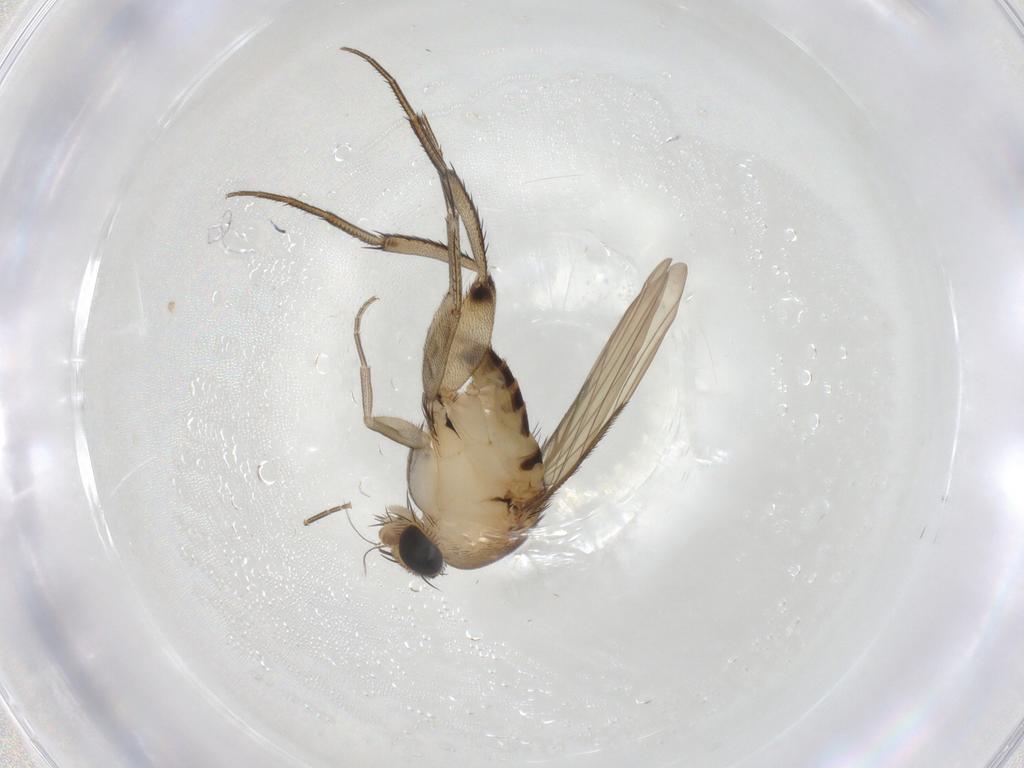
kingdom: Animalia
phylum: Arthropoda
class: Insecta
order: Diptera
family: Phoridae
